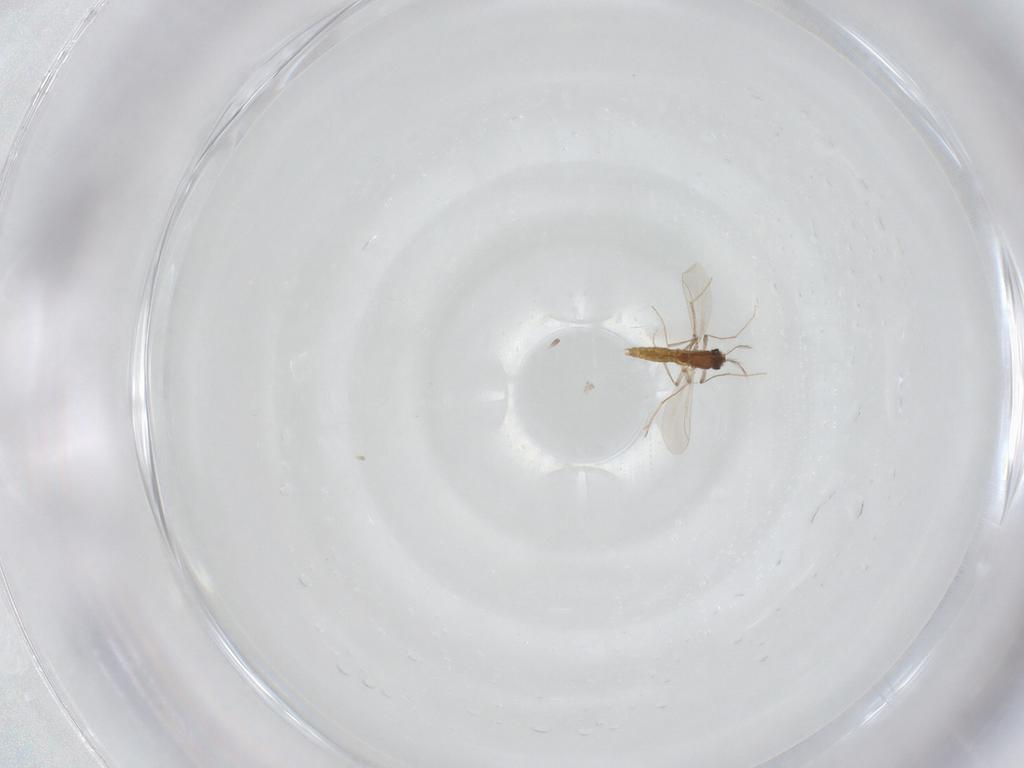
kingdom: Animalia
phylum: Arthropoda
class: Insecta
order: Diptera
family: Chironomidae
